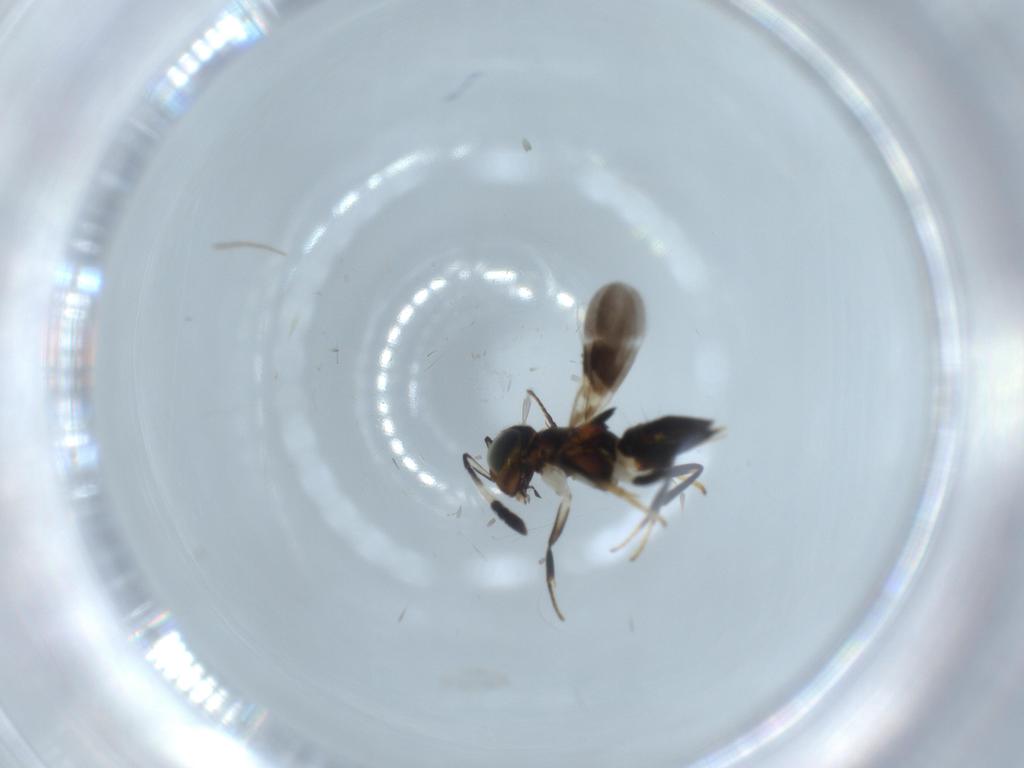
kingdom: Animalia
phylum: Arthropoda
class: Insecta
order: Hymenoptera
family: Encyrtidae
